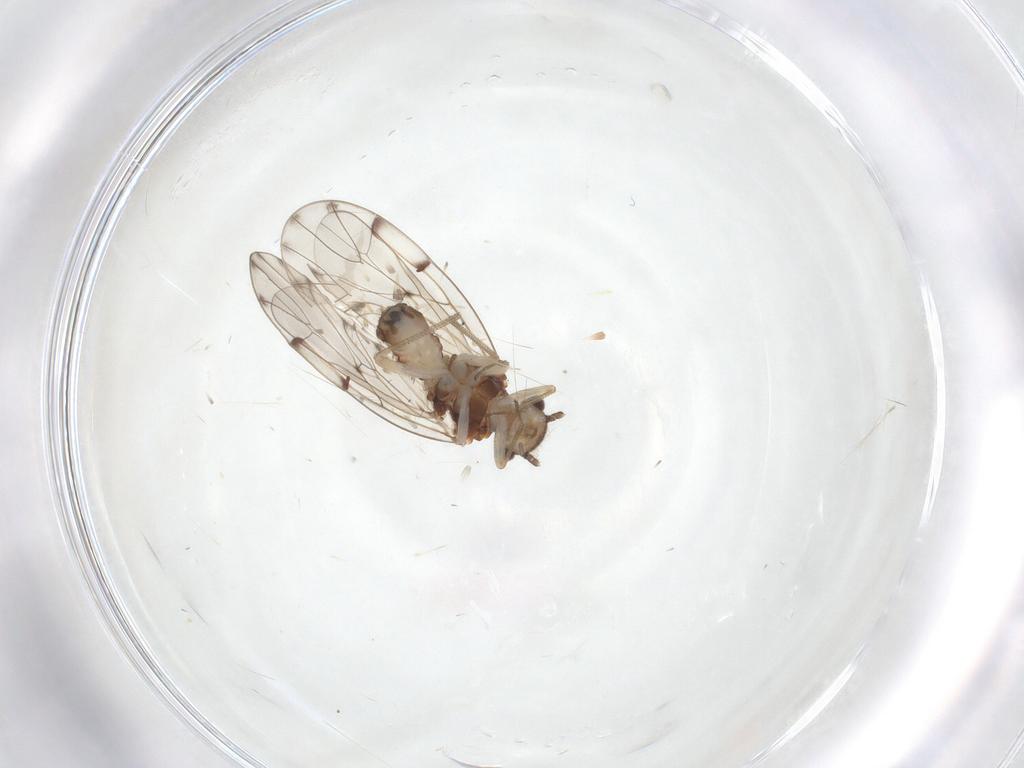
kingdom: Animalia
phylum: Arthropoda
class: Insecta
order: Psocodea
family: Ectopsocidae
